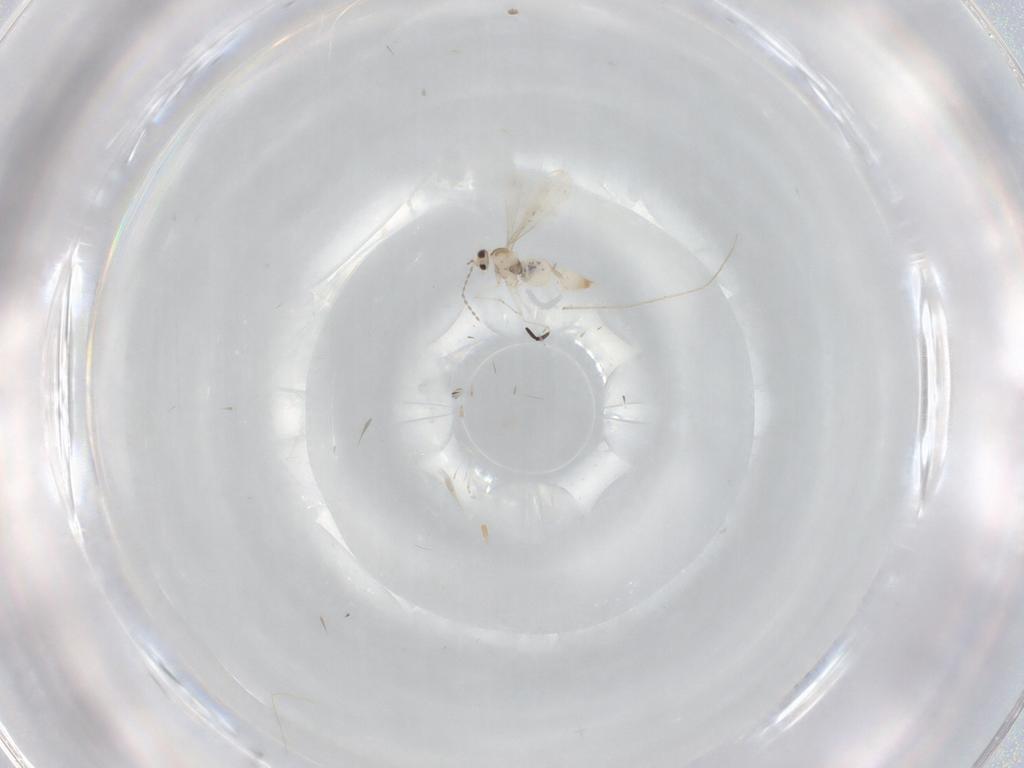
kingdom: Animalia
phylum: Arthropoda
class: Insecta
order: Diptera
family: Cecidomyiidae
